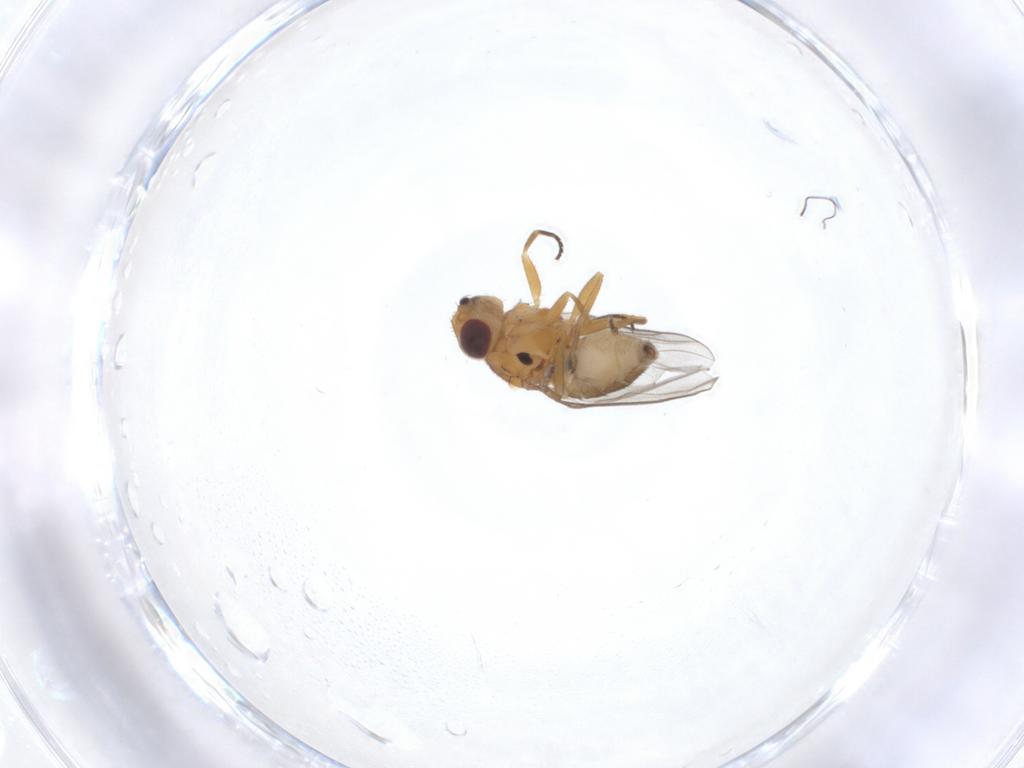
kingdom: Animalia
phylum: Arthropoda
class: Insecta
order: Diptera
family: Chloropidae
